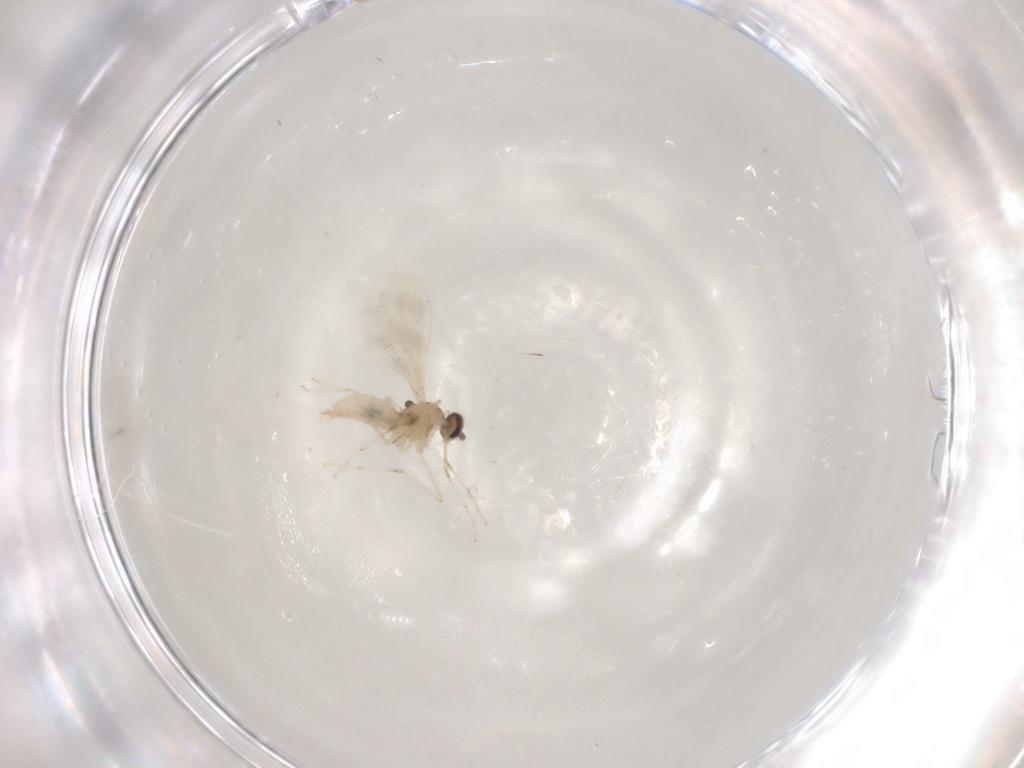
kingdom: Animalia
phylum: Arthropoda
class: Insecta
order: Diptera
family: Cecidomyiidae
